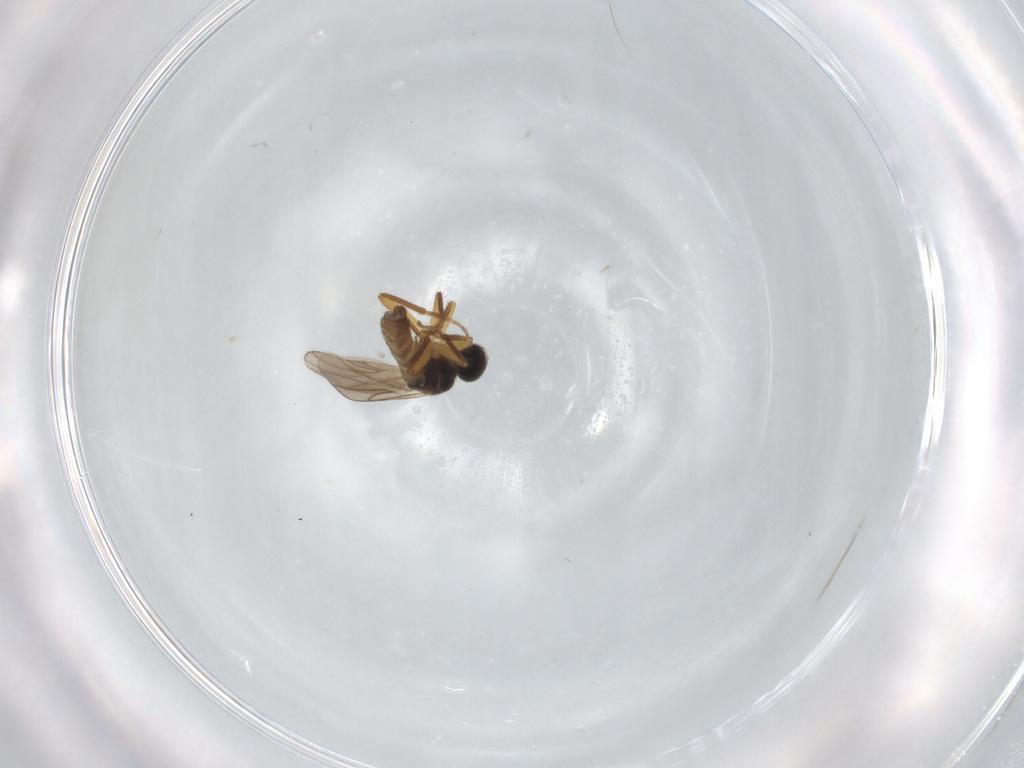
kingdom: Animalia
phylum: Arthropoda
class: Insecta
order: Diptera
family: Hybotidae
